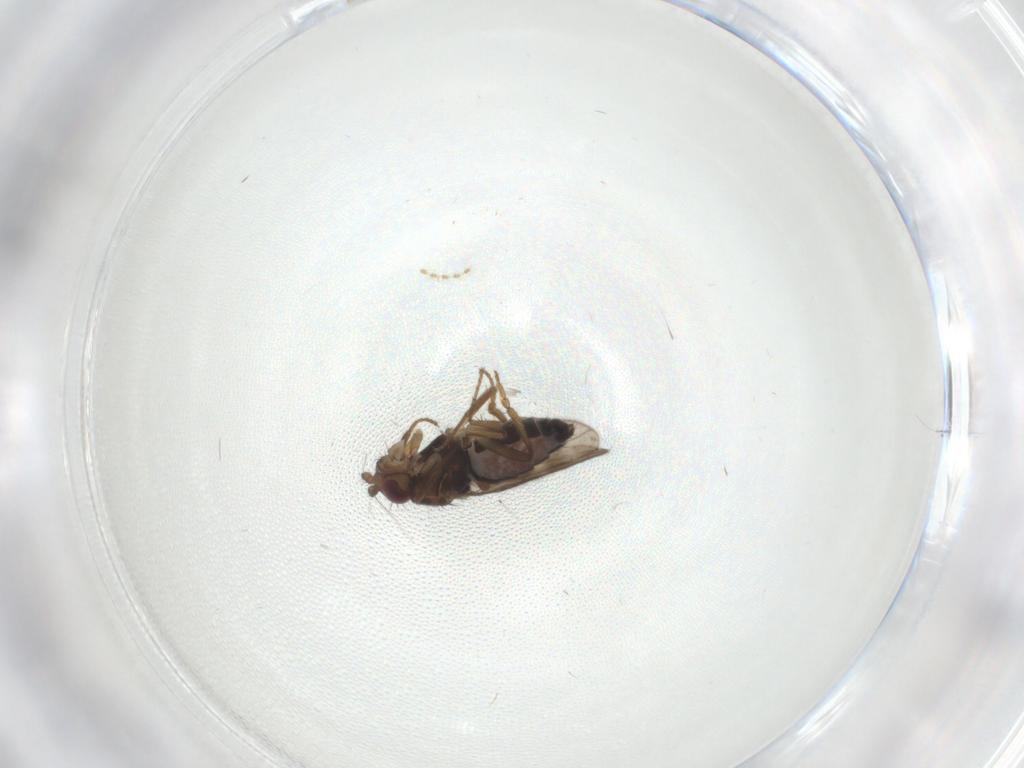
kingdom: Animalia
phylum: Arthropoda
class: Insecta
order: Diptera
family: Sphaeroceridae
